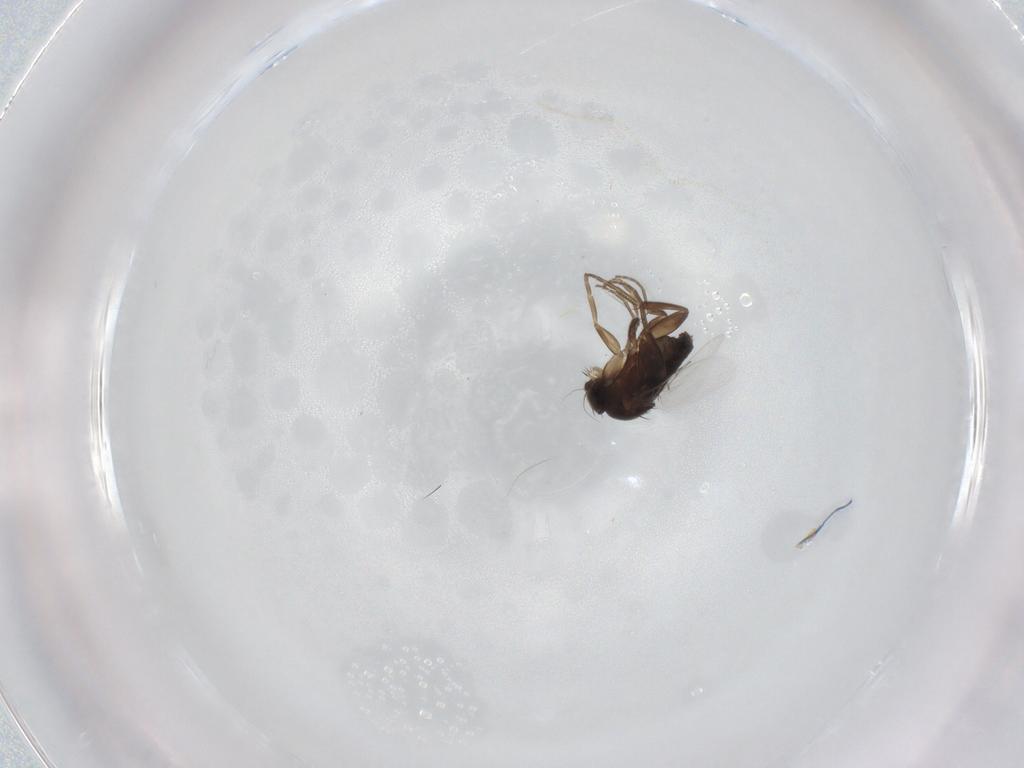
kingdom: Animalia
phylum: Arthropoda
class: Insecta
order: Diptera
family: Phoridae
